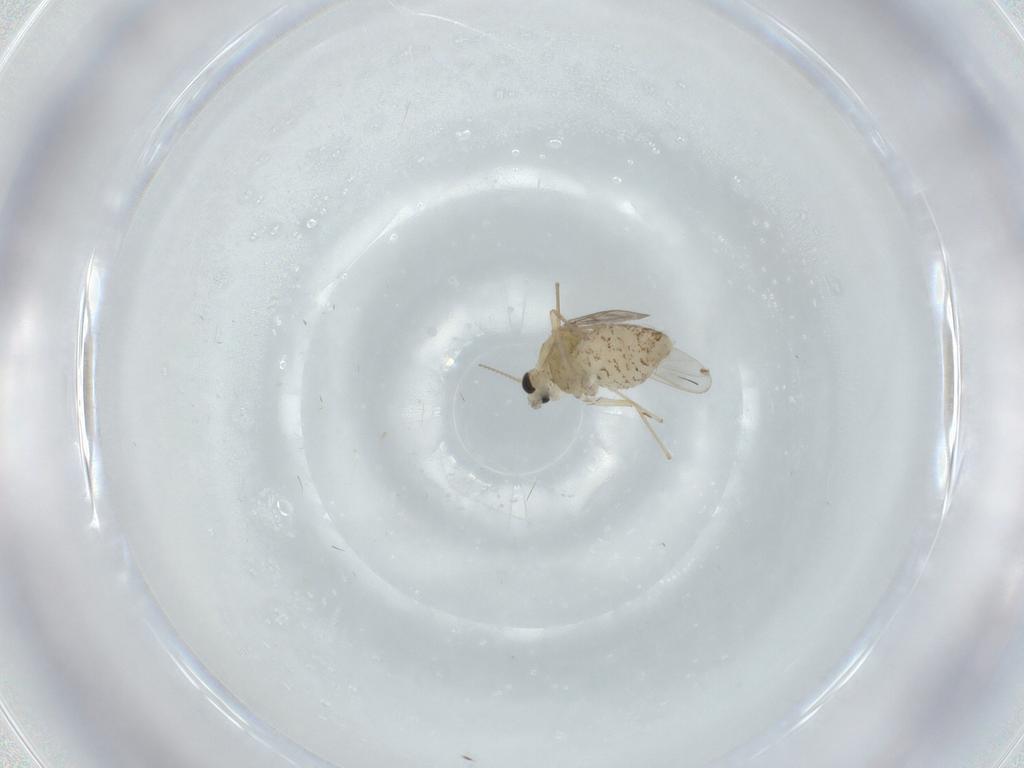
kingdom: Animalia
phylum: Arthropoda
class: Insecta
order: Diptera
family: Chironomidae
